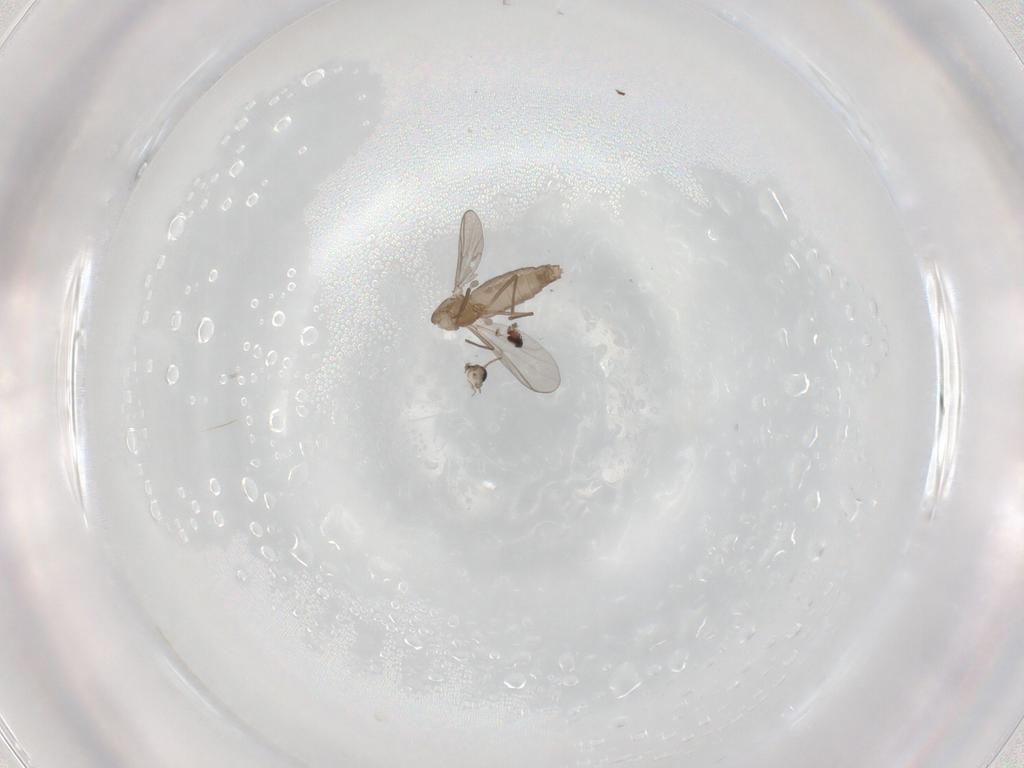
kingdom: Animalia
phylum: Arthropoda
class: Insecta
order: Diptera
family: Chironomidae
